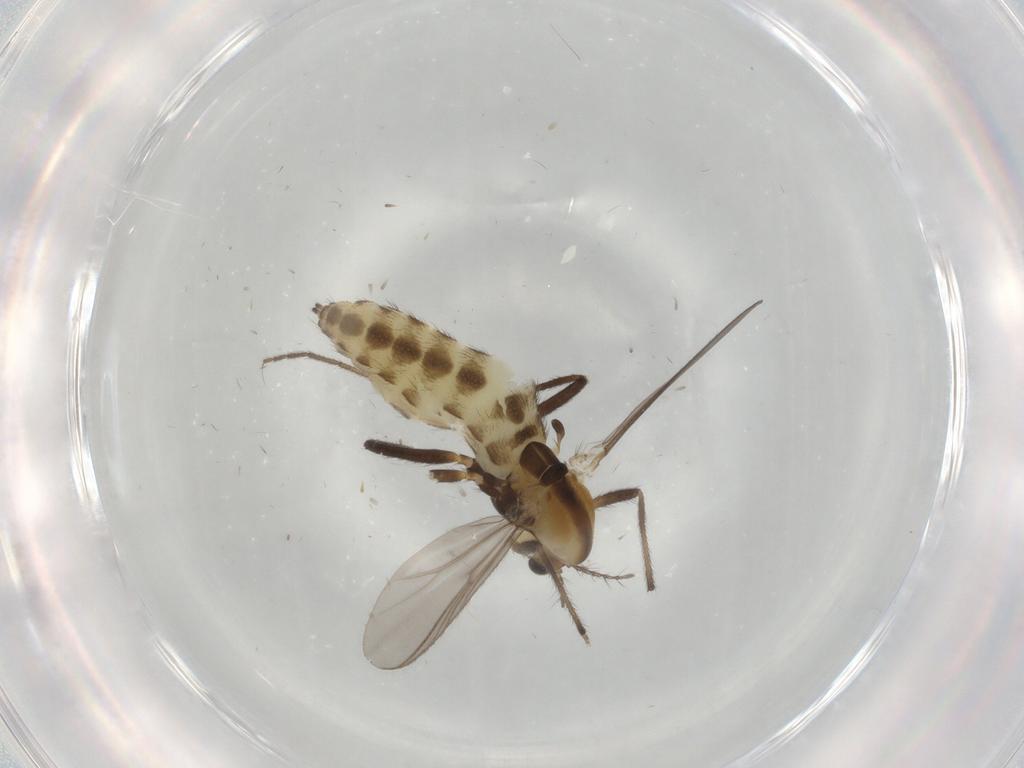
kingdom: Animalia
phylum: Arthropoda
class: Insecta
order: Diptera
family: Chironomidae
